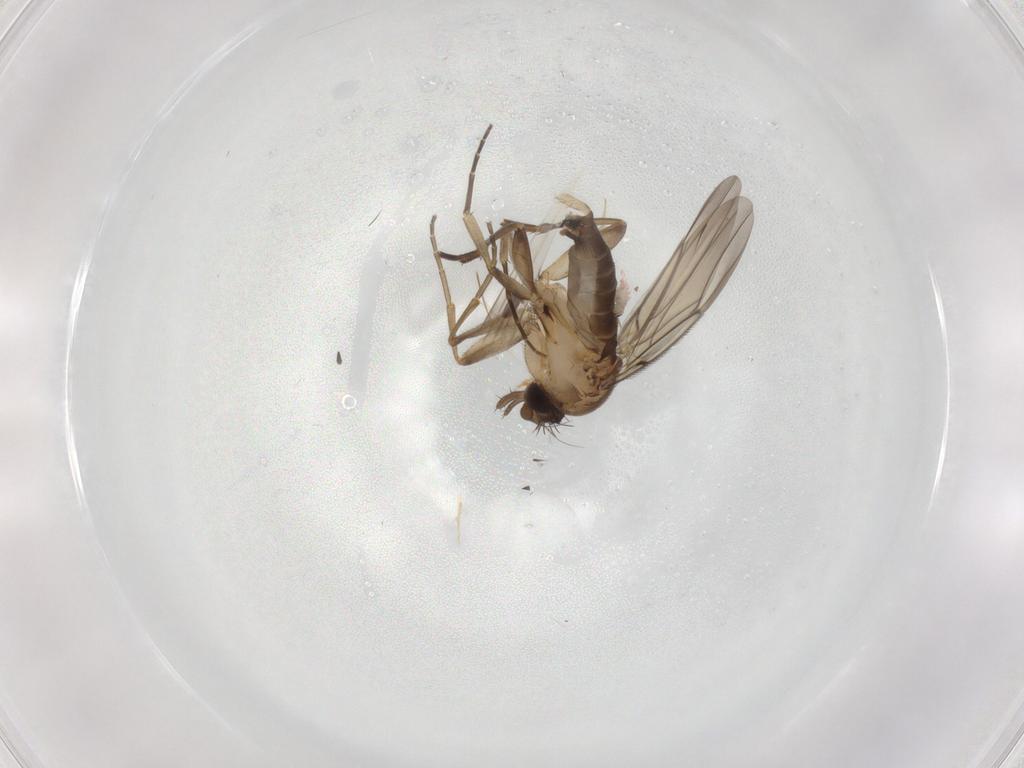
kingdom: Animalia
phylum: Arthropoda
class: Insecta
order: Diptera
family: Phoridae
